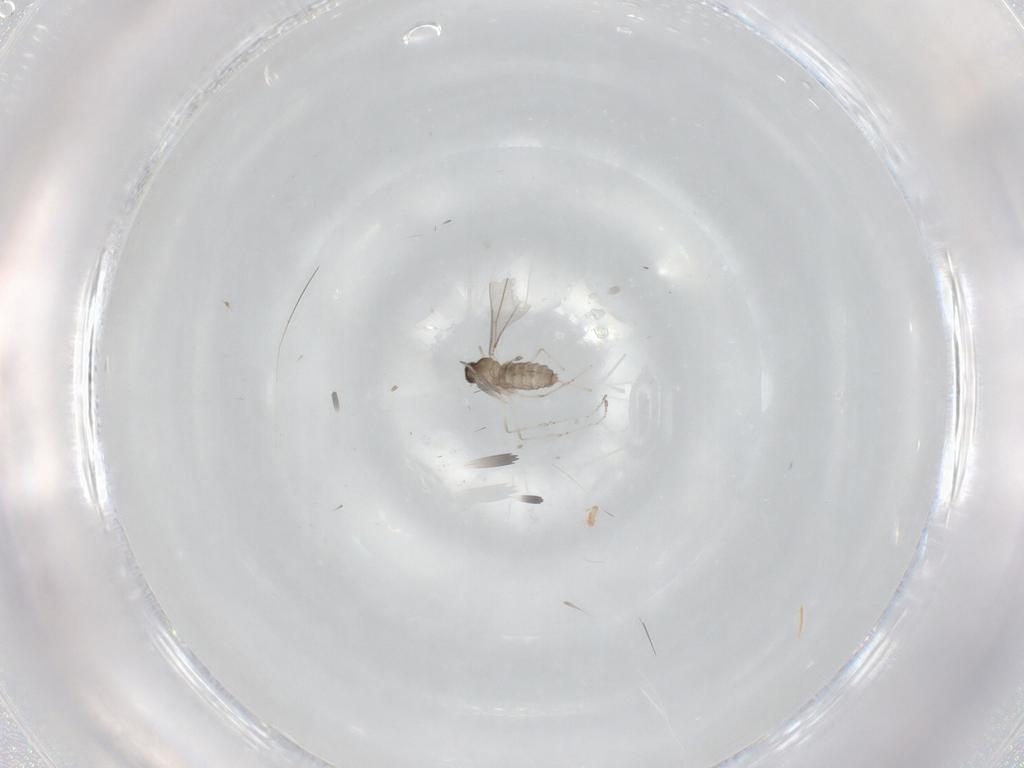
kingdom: Animalia
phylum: Arthropoda
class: Insecta
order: Diptera
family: Cecidomyiidae
